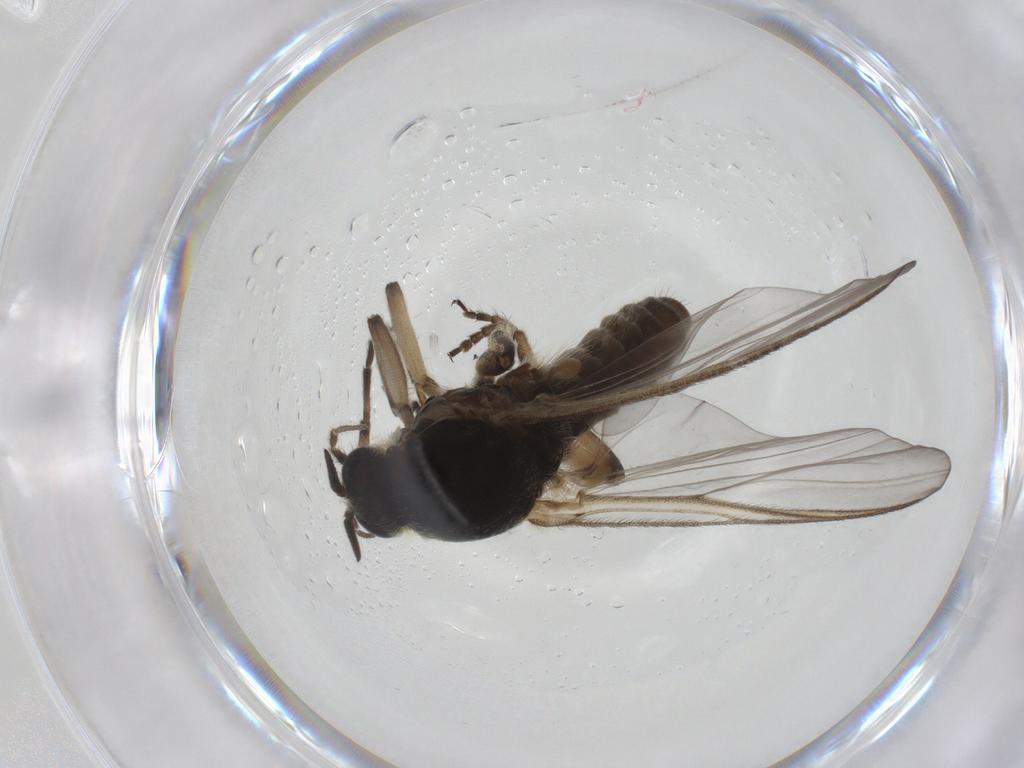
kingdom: Animalia
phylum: Arthropoda
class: Insecta
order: Diptera
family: Simuliidae
